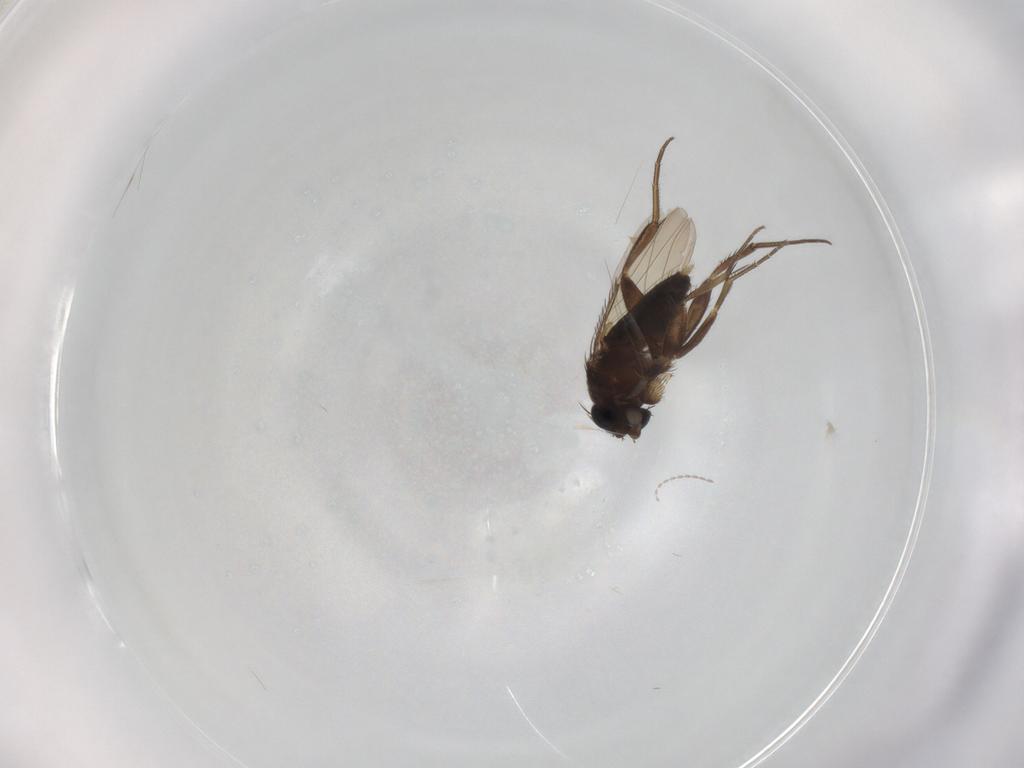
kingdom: Animalia
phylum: Arthropoda
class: Insecta
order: Diptera
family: Phoridae
